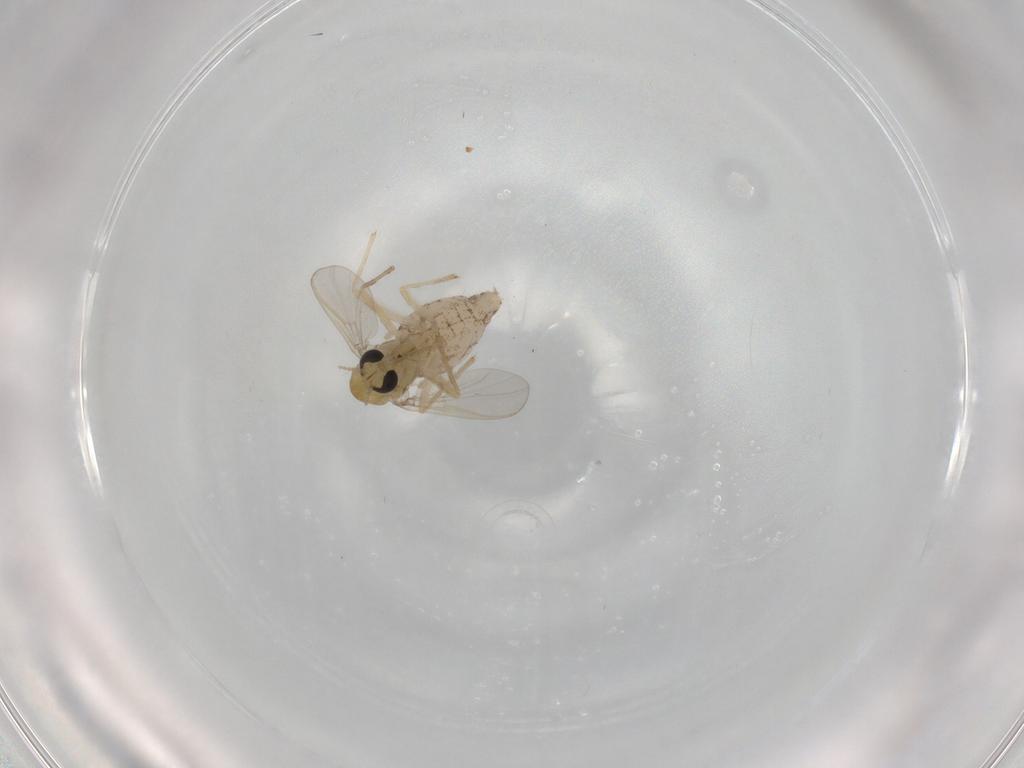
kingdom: Animalia
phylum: Arthropoda
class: Insecta
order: Diptera
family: Chironomidae
